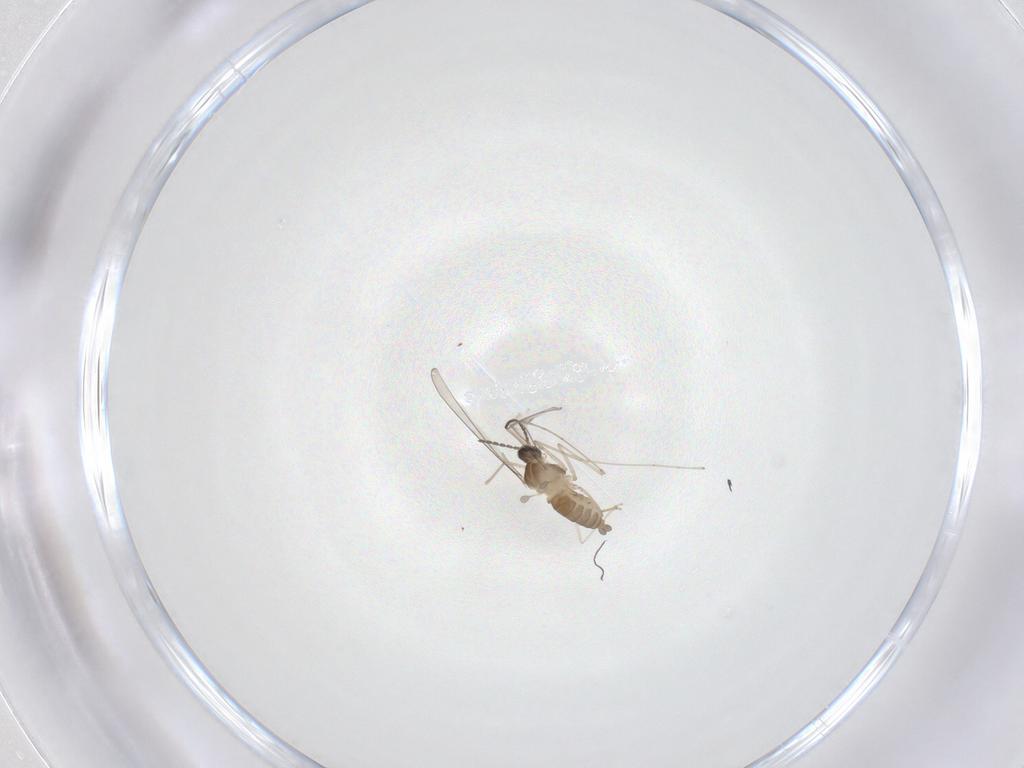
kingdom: Animalia
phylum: Arthropoda
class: Insecta
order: Diptera
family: Cecidomyiidae
